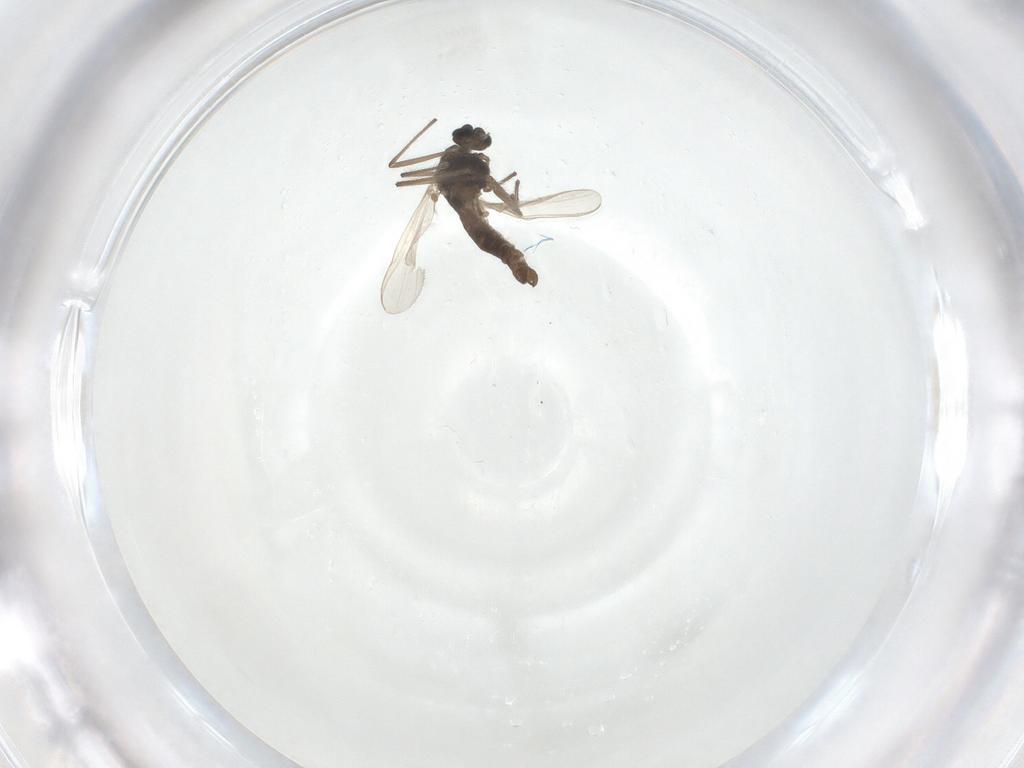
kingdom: Animalia
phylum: Arthropoda
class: Insecta
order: Diptera
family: Chironomidae
